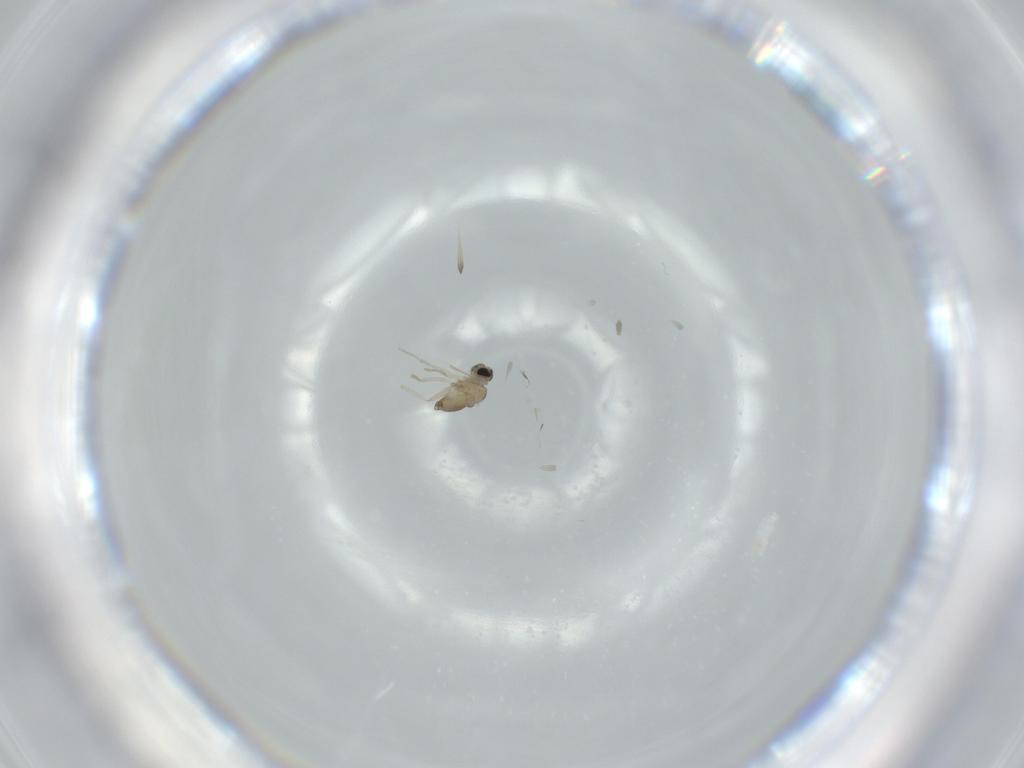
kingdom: Animalia
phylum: Arthropoda
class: Insecta
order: Diptera
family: Cecidomyiidae
